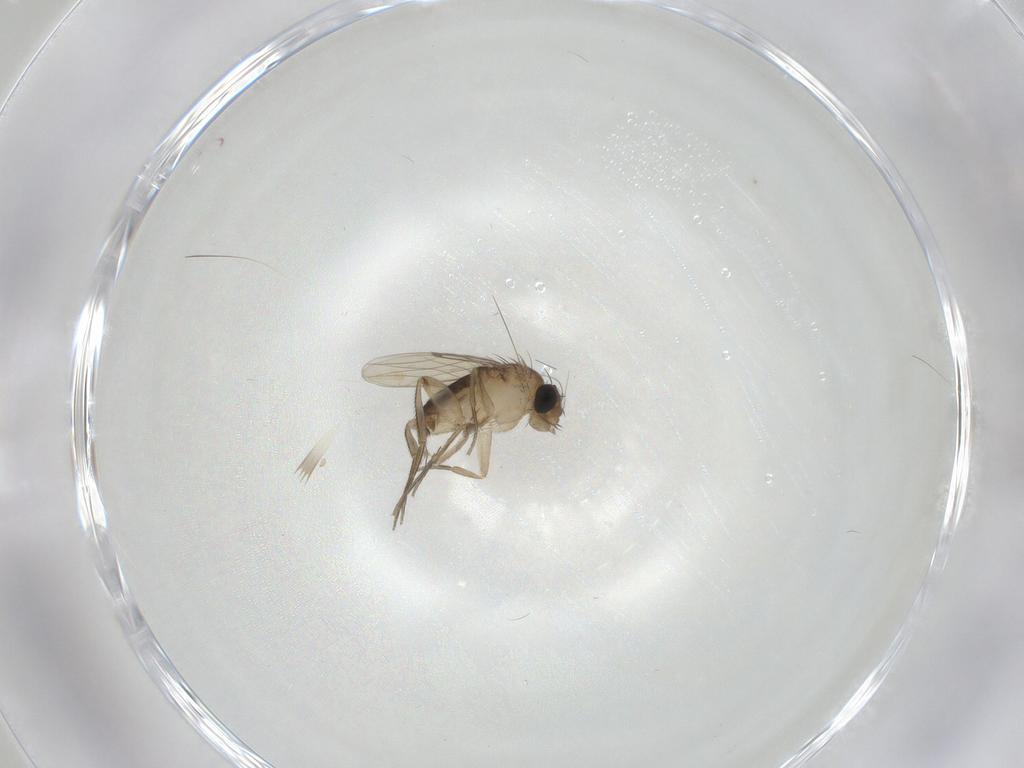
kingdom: Animalia
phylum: Arthropoda
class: Insecta
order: Diptera
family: Phoridae
